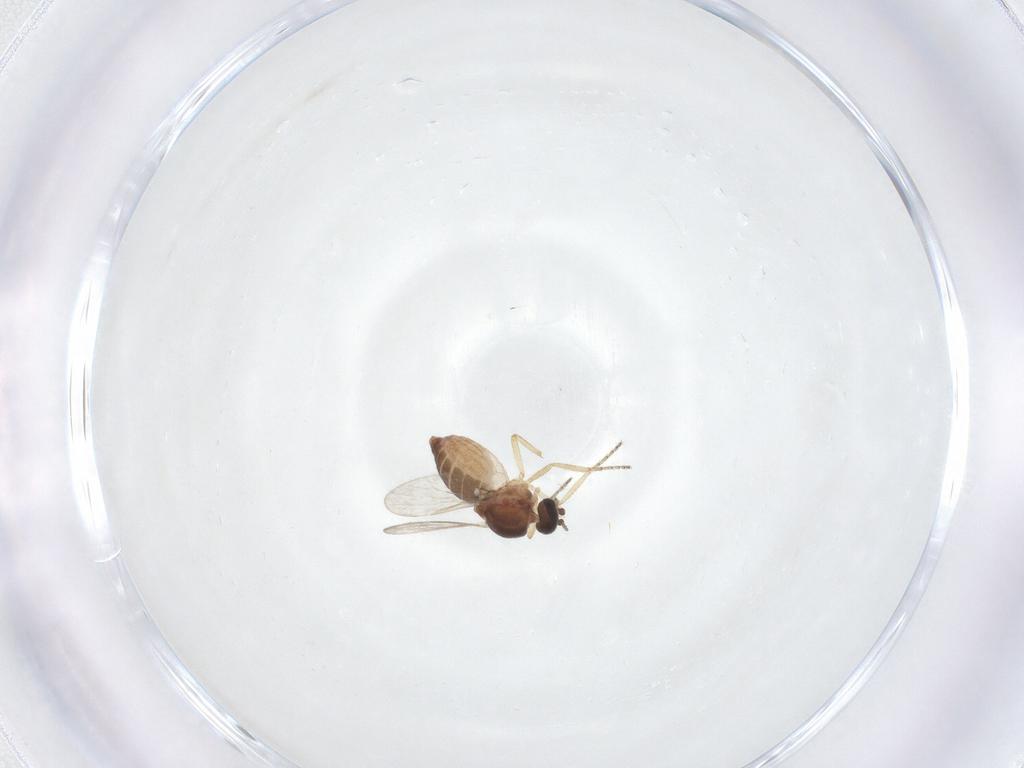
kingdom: Animalia
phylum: Arthropoda
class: Insecta
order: Diptera
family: Ceratopogonidae
